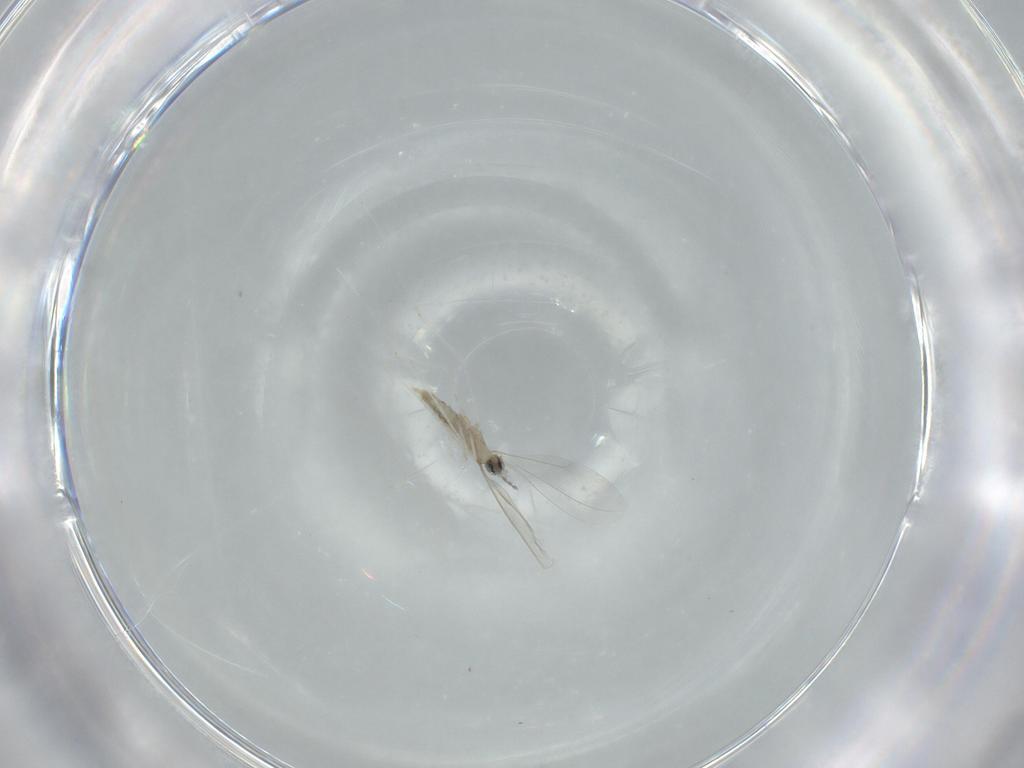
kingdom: Animalia
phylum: Arthropoda
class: Insecta
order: Diptera
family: Cecidomyiidae
